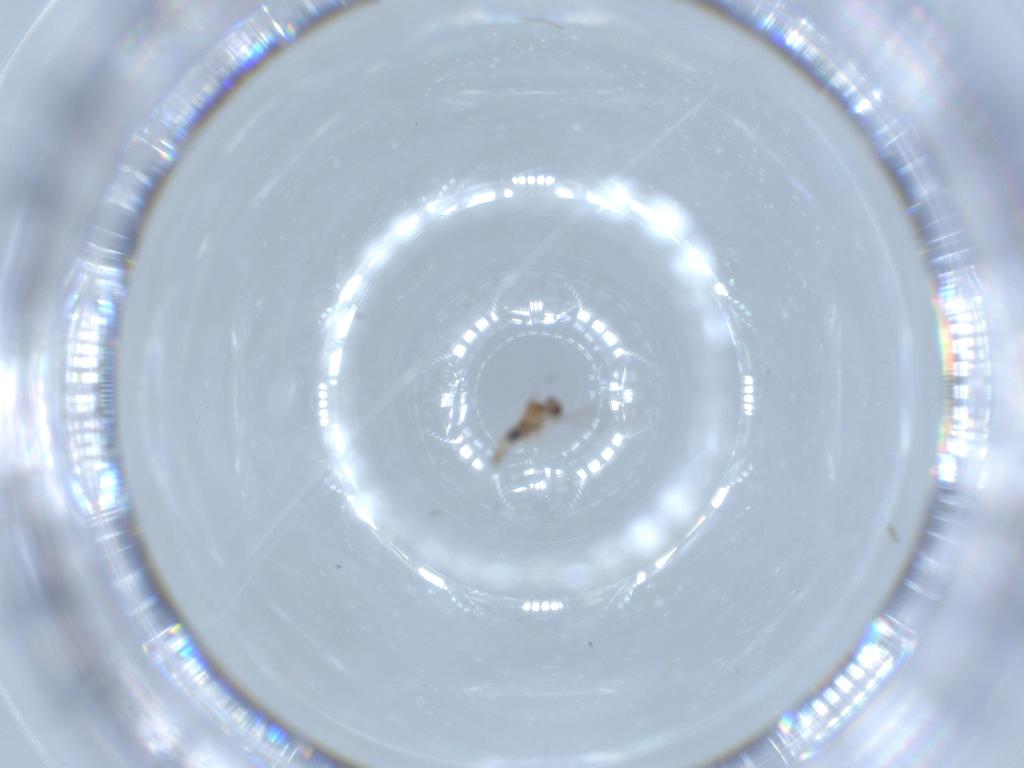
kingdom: Animalia
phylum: Arthropoda
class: Insecta
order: Diptera
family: Cecidomyiidae
